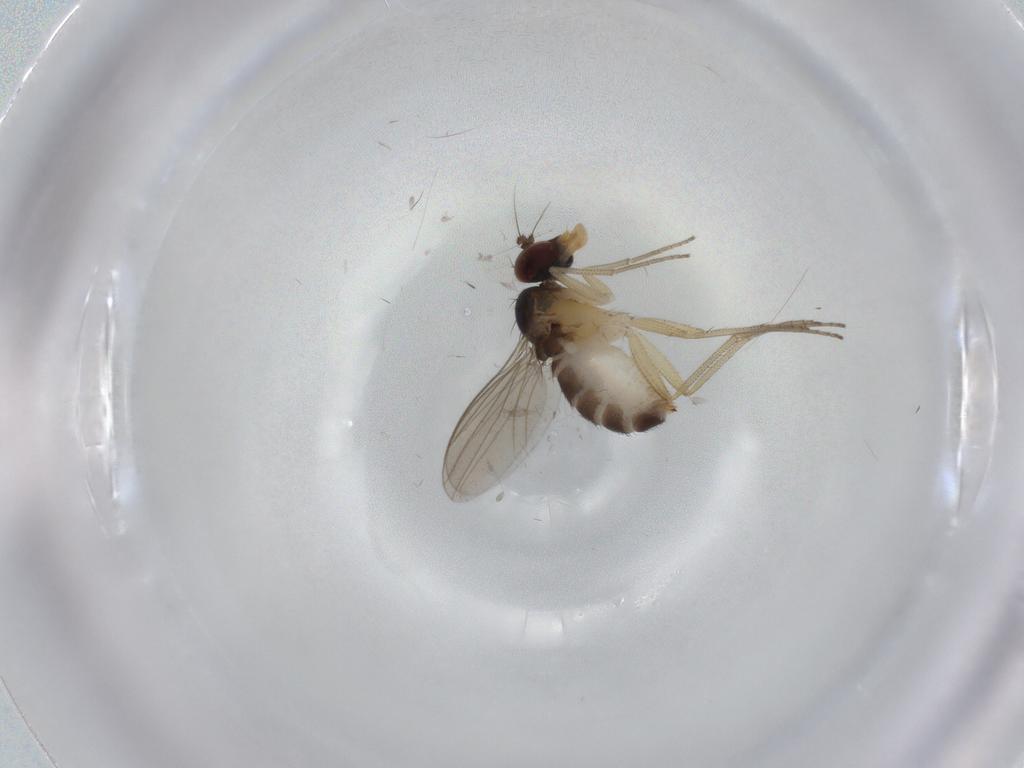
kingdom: Animalia
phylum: Arthropoda
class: Insecta
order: Diptera
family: Dolichopodidae
